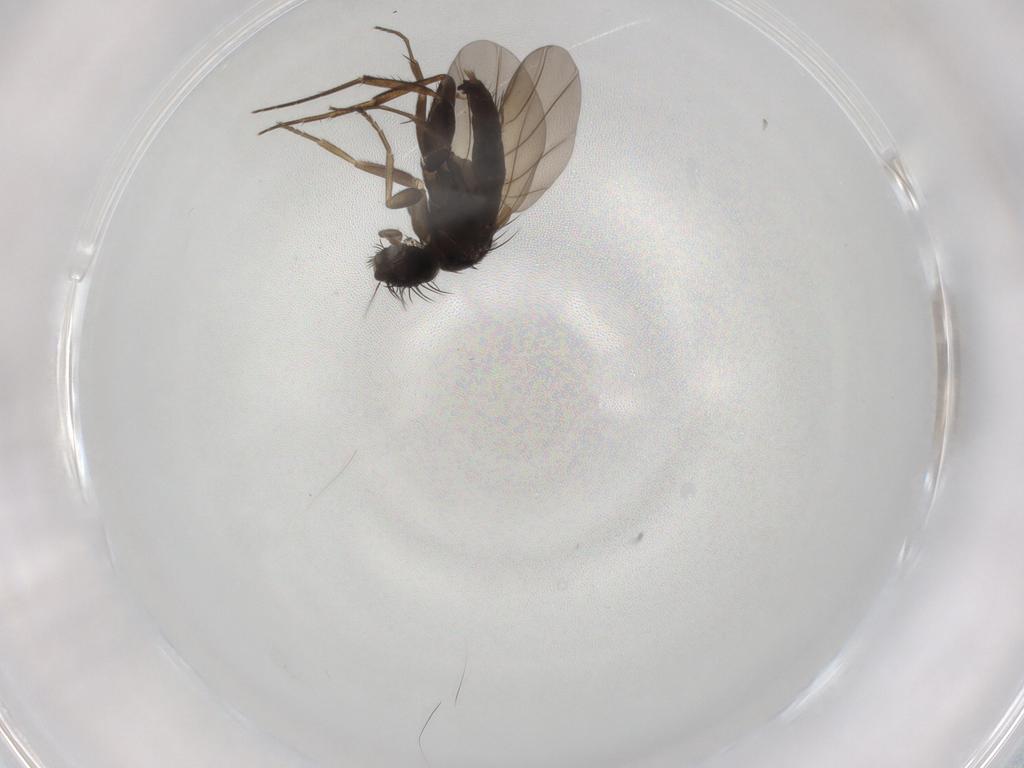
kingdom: Animalia
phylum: Arthropoda
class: Insecta
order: Diptera
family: Phoridae
